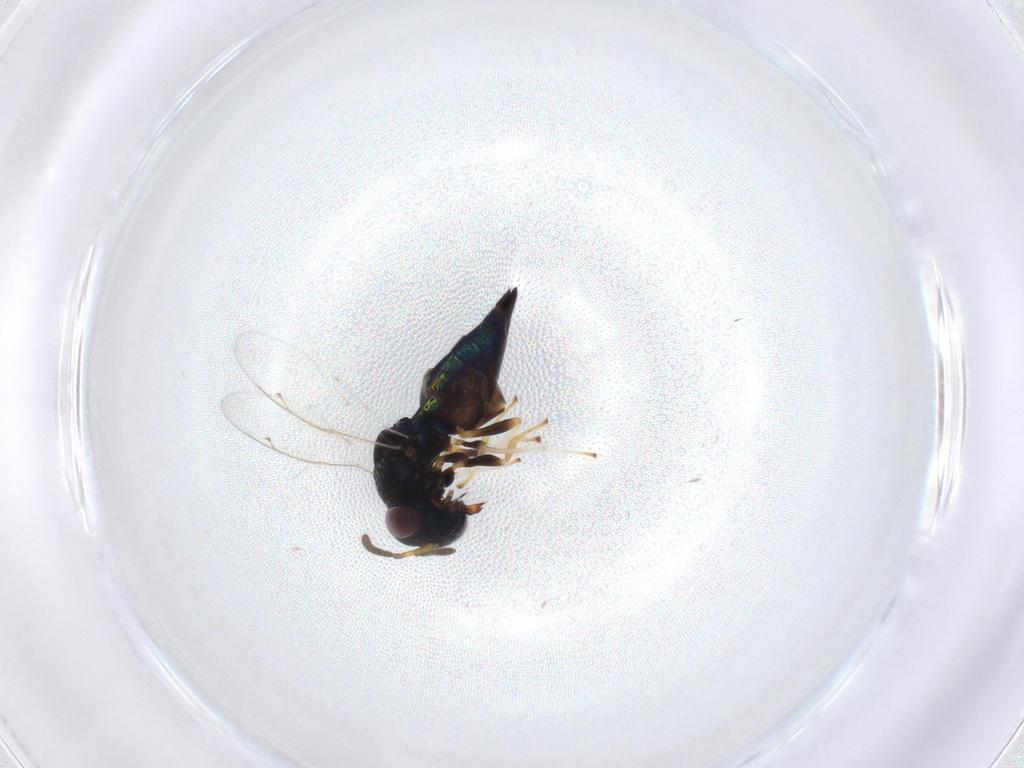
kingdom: Animalia
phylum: Arthropoda
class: Insecta
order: Hymenoptera
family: Pteromalidae
